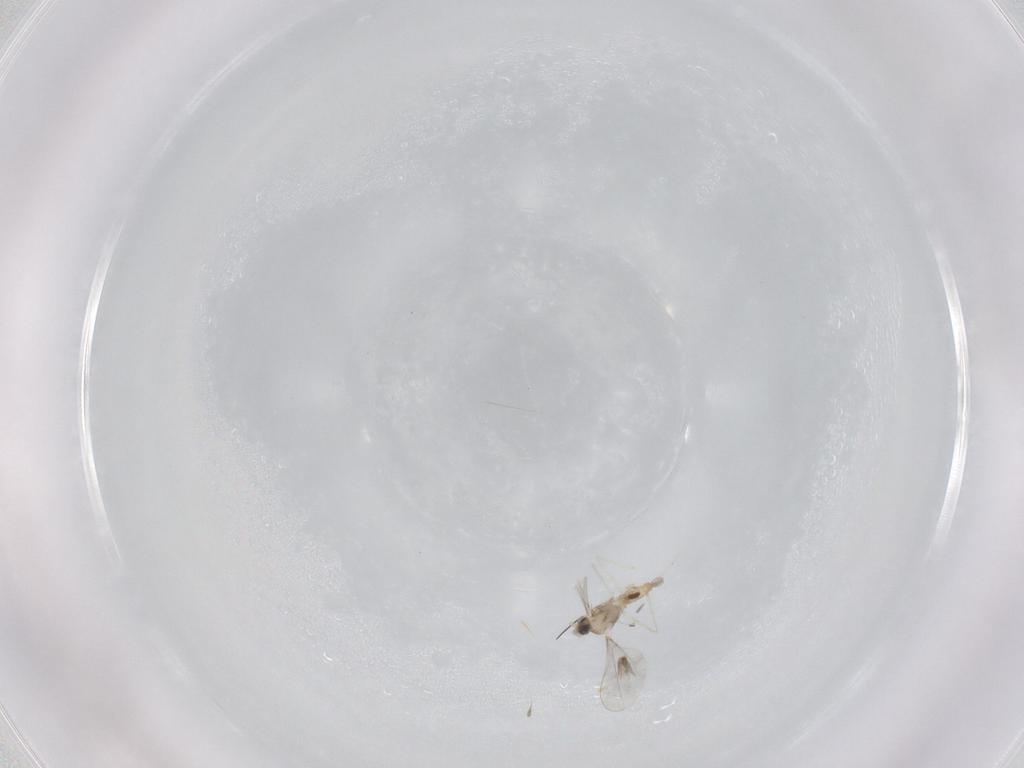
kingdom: Animalia
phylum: Arthropoda
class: Insecta
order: Diptera
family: Cecidomyiidae
